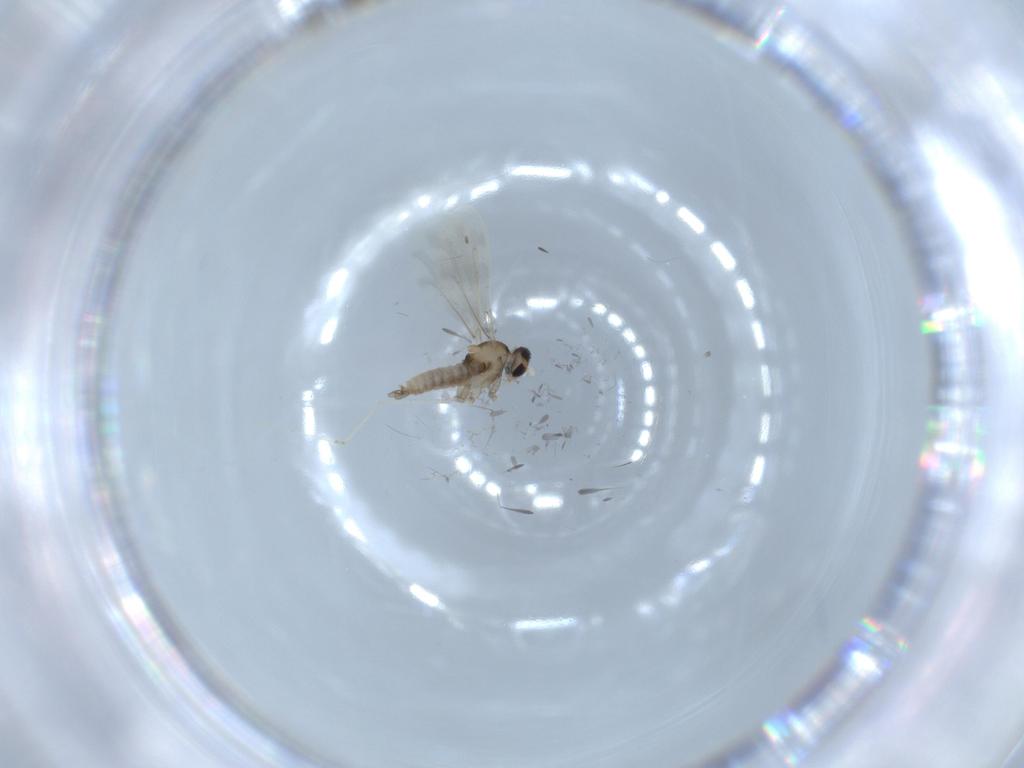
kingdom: Animalia
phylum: Arthropoda
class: Insecta
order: Diptera
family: Cecidomyiidae
